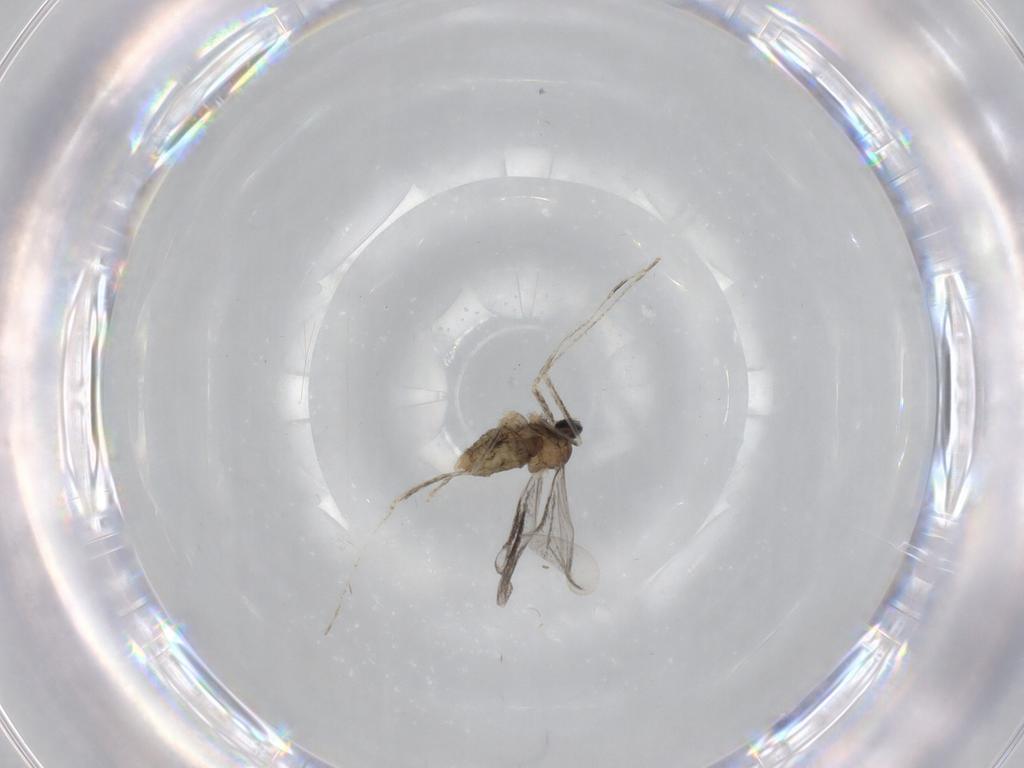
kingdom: Animalia
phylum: Arthropoda
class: Insecta
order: Diptera
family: Cecidomyiidae
